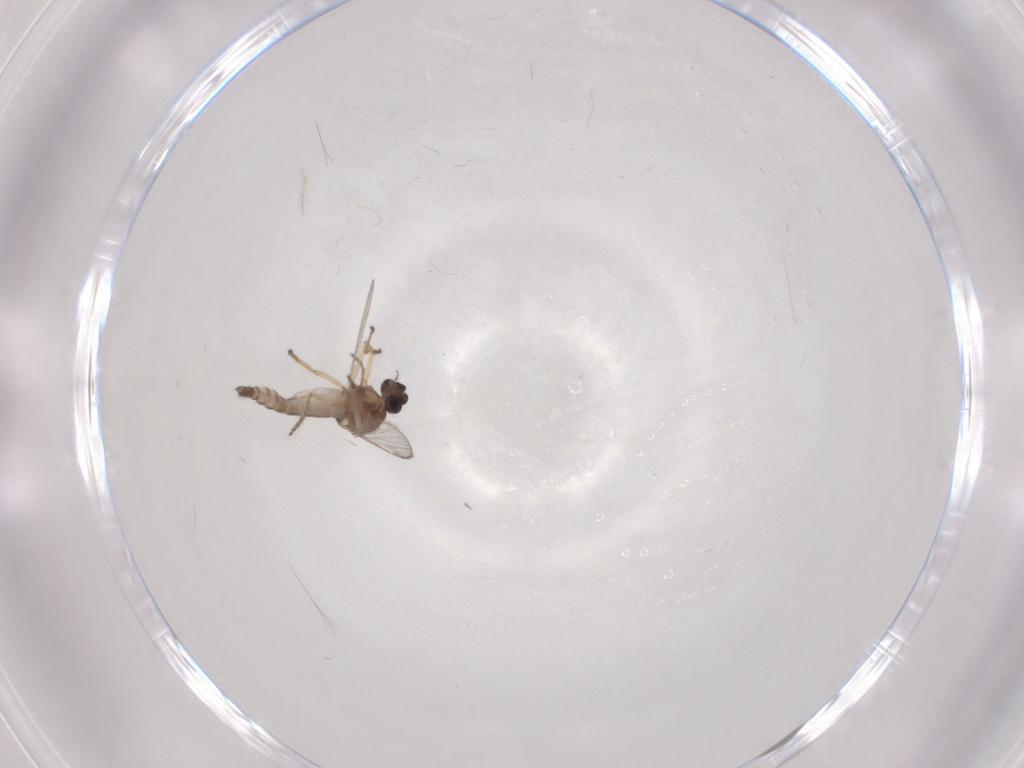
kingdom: Animalia
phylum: Arthropoda
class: Insecta
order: Diptera
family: Ceratopogonidae
